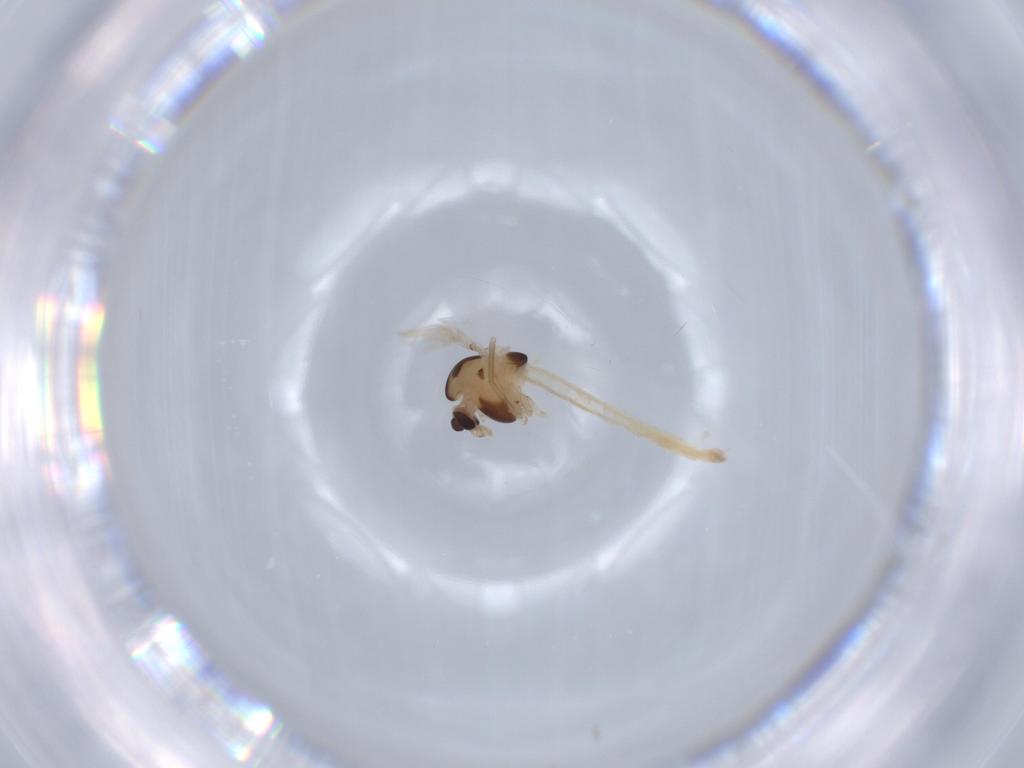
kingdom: Animalia
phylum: Arthropoda
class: Insecta
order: Diptera
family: Chironomidae
